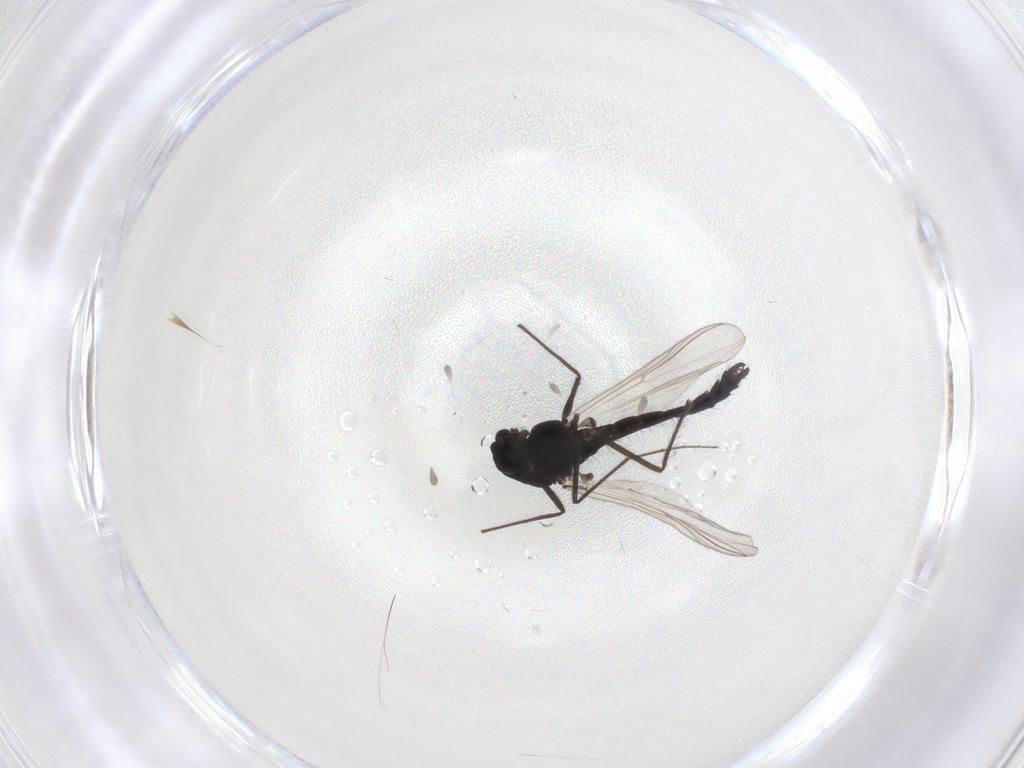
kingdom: Animalia
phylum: Arthropoda
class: Insecta
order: Diptera
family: Chironomidae
